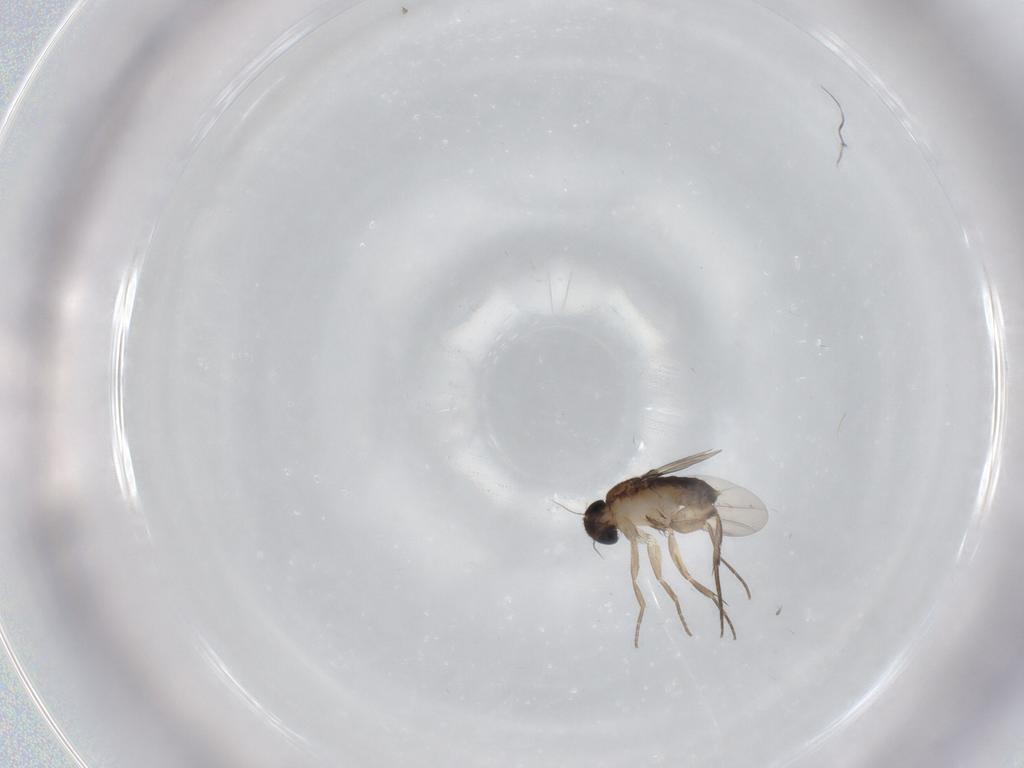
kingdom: Animalia
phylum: Arthropoda
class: Insecta
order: Diptera
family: Phoridae
